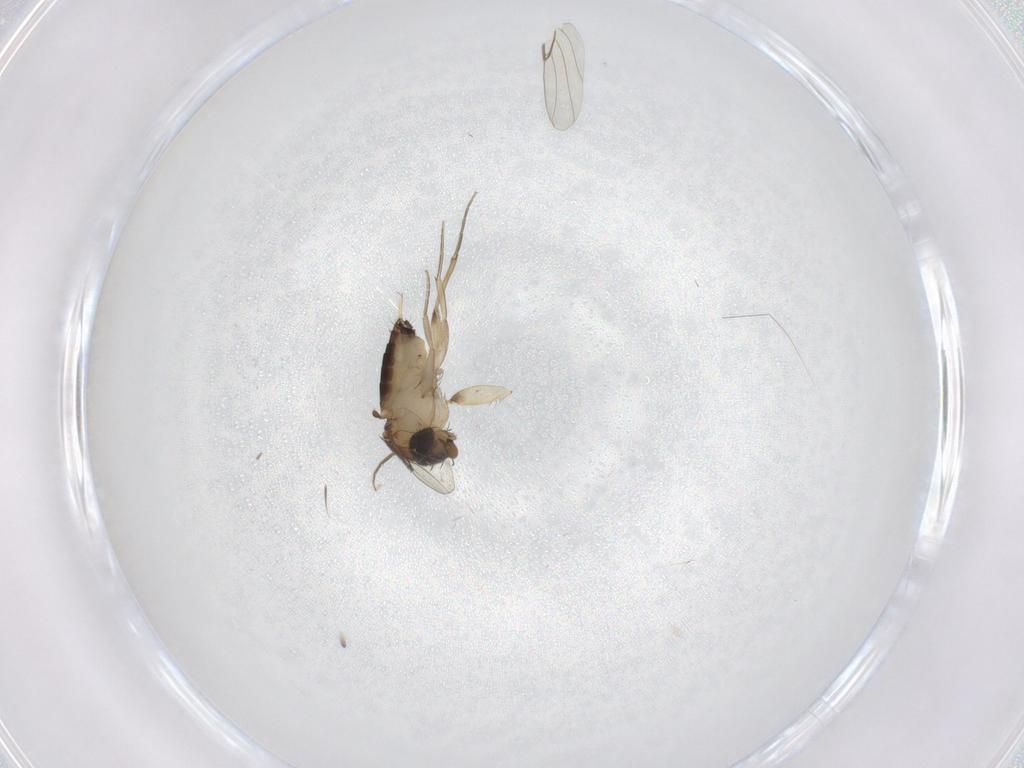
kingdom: Animalia
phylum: Arthropoda
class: Insecta
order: Diptera
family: Phoridae
